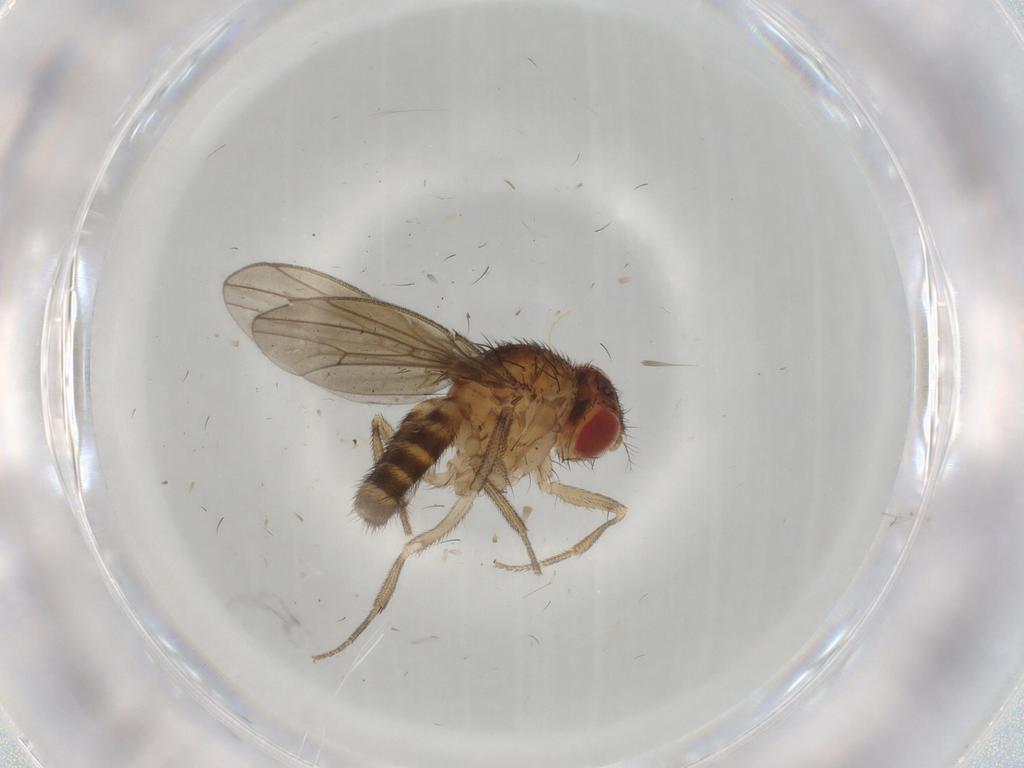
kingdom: Animalia
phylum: Arthropoda
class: Insecta
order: Diptera
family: Drosophilidae
